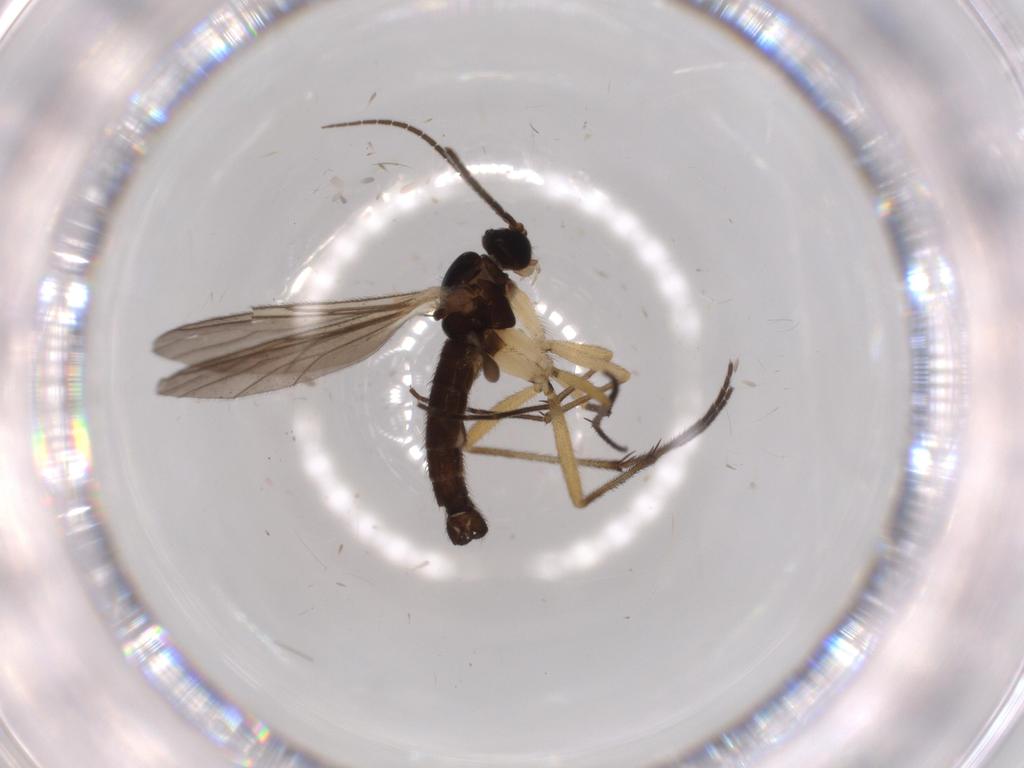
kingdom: Animalia
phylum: Arthropoda
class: Insecta
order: Diptera
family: Sciaridae
